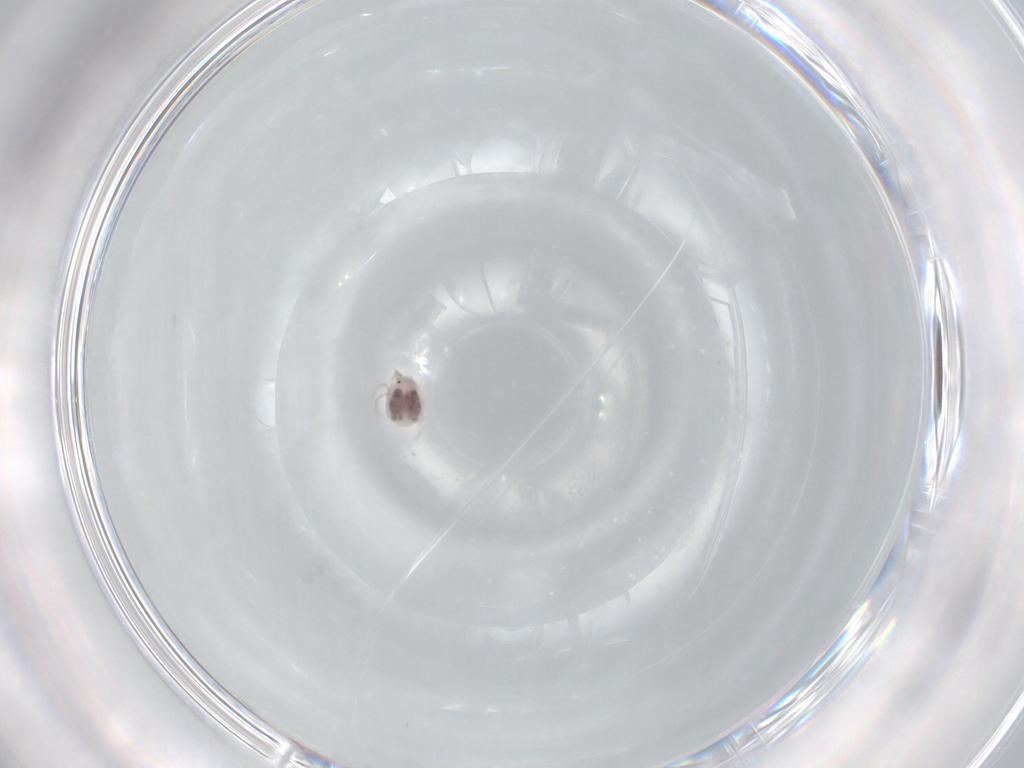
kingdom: Animalia
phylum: Arthropoda
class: Arachnida
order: Trombidiformes
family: Pionidae
